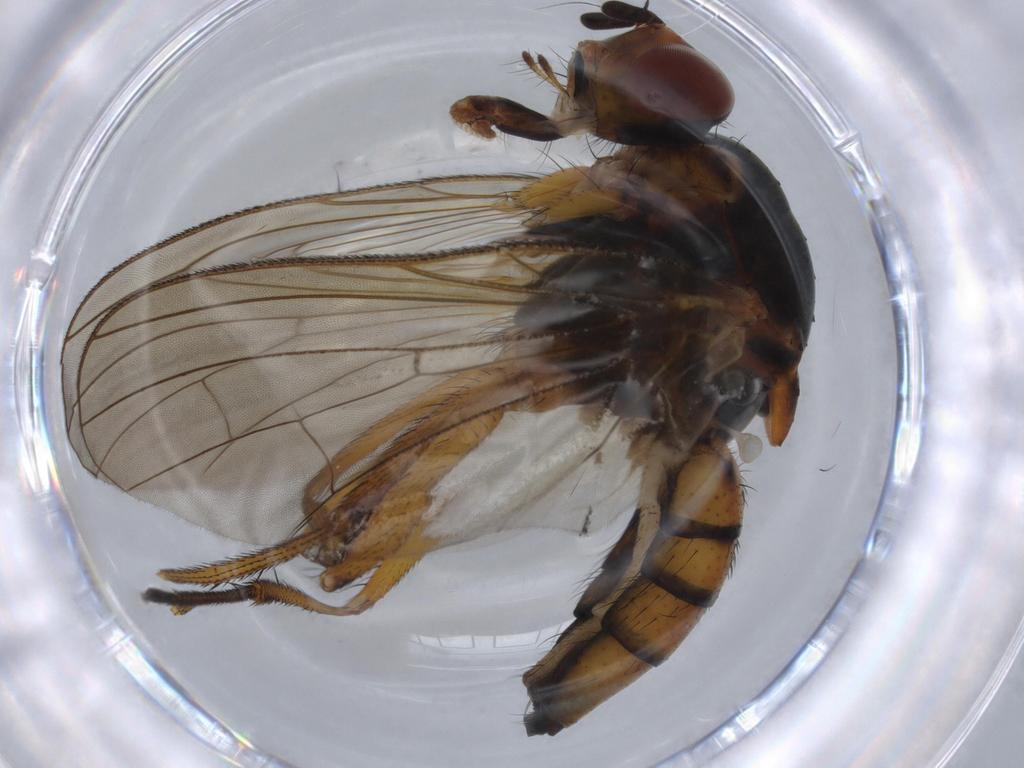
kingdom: Animalia
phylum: Arthropoda
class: Insecta
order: Diptera
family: Cecidomyiidae
